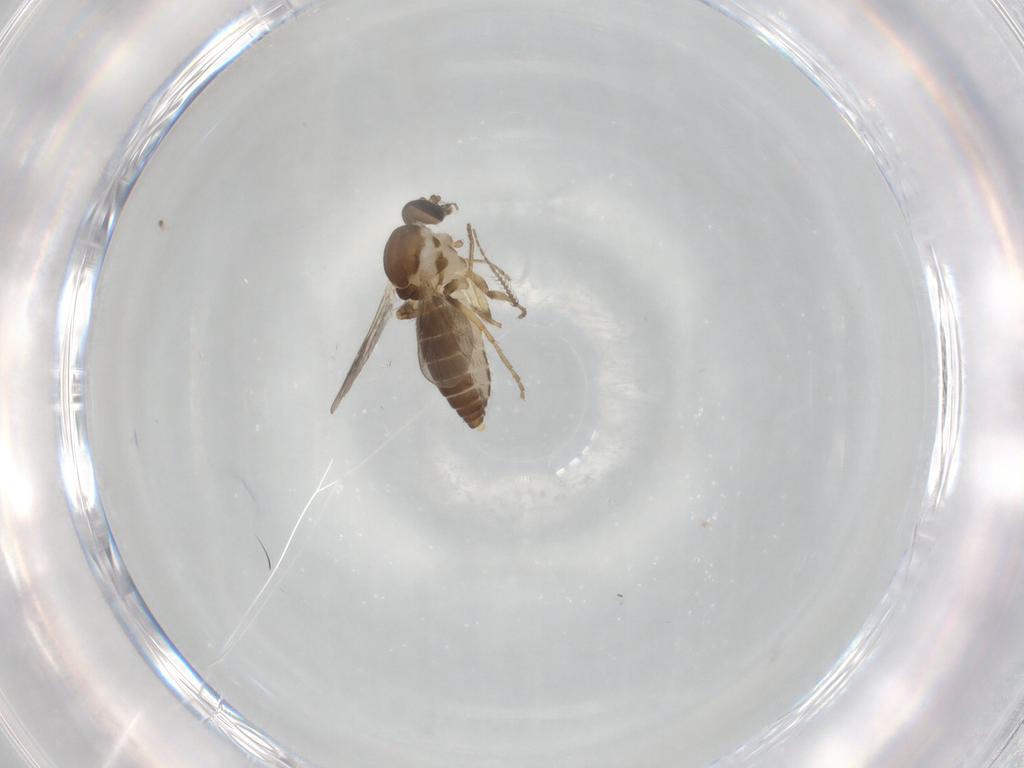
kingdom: Animalia
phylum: Arthropoda
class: Insecta
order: Diptera
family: Ceratopogonidae
